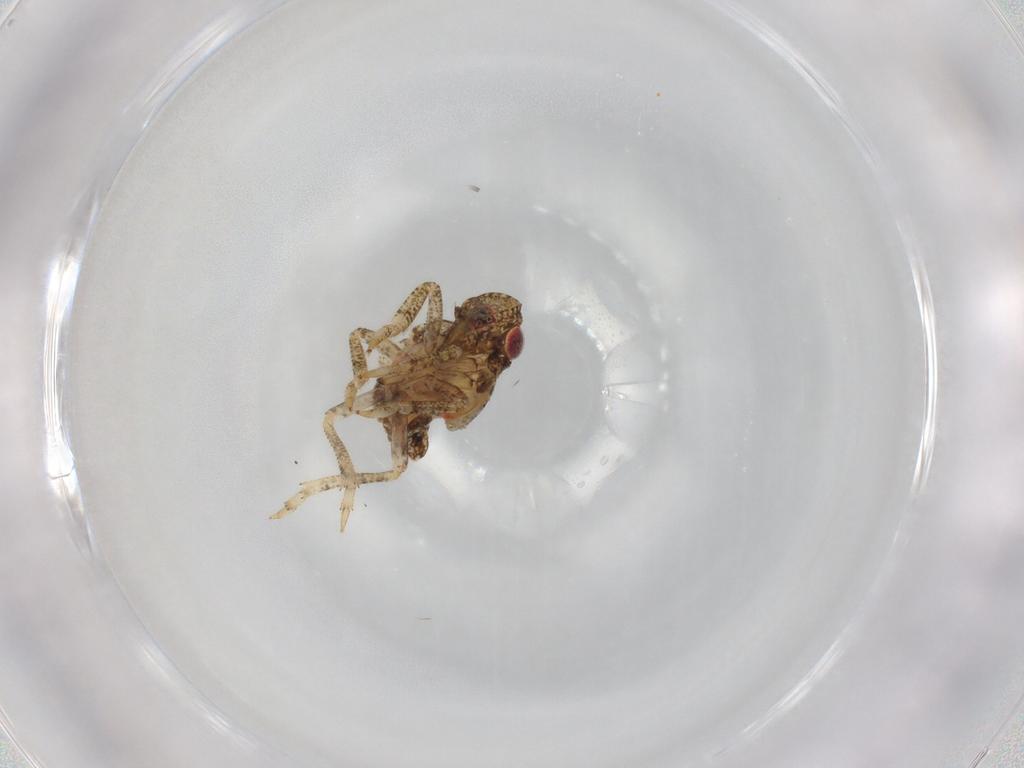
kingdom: Animalia
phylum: Arthropoda
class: Insecta
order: Hemiptera
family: Fulgoroidea_incertae_sedis
